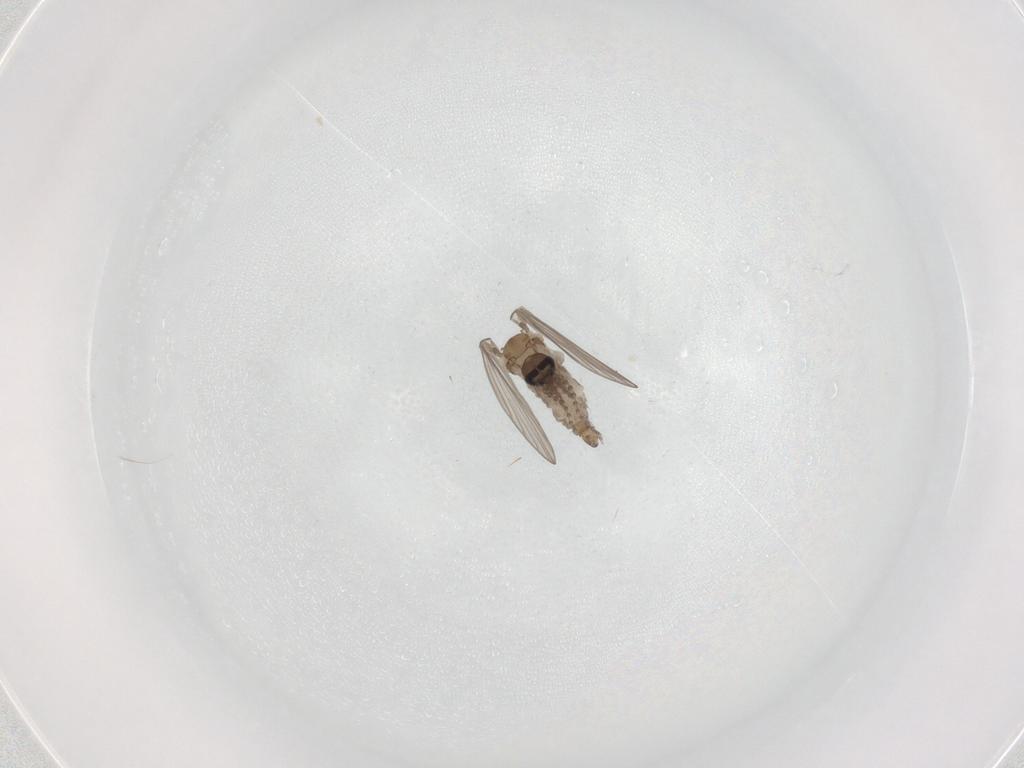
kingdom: Animalia
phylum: Arthropoda
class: Insecta
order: Diptera
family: Psychodidae
